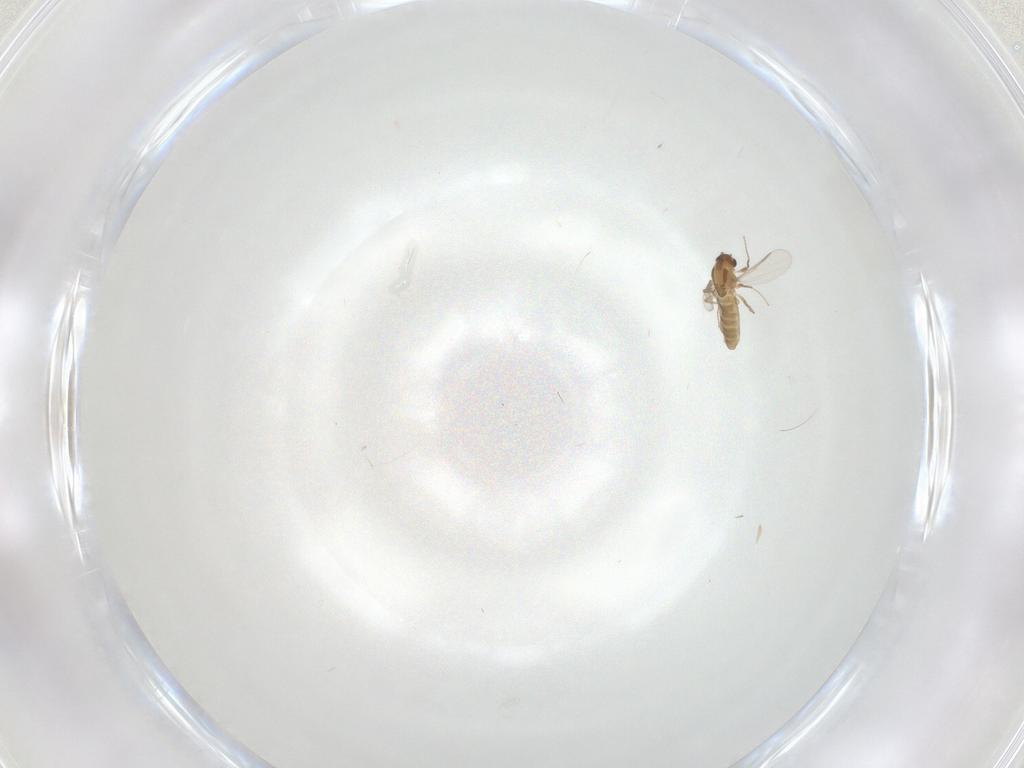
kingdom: Animalia
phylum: Arthropoda
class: Insecta
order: Diptera
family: Chironomidae
